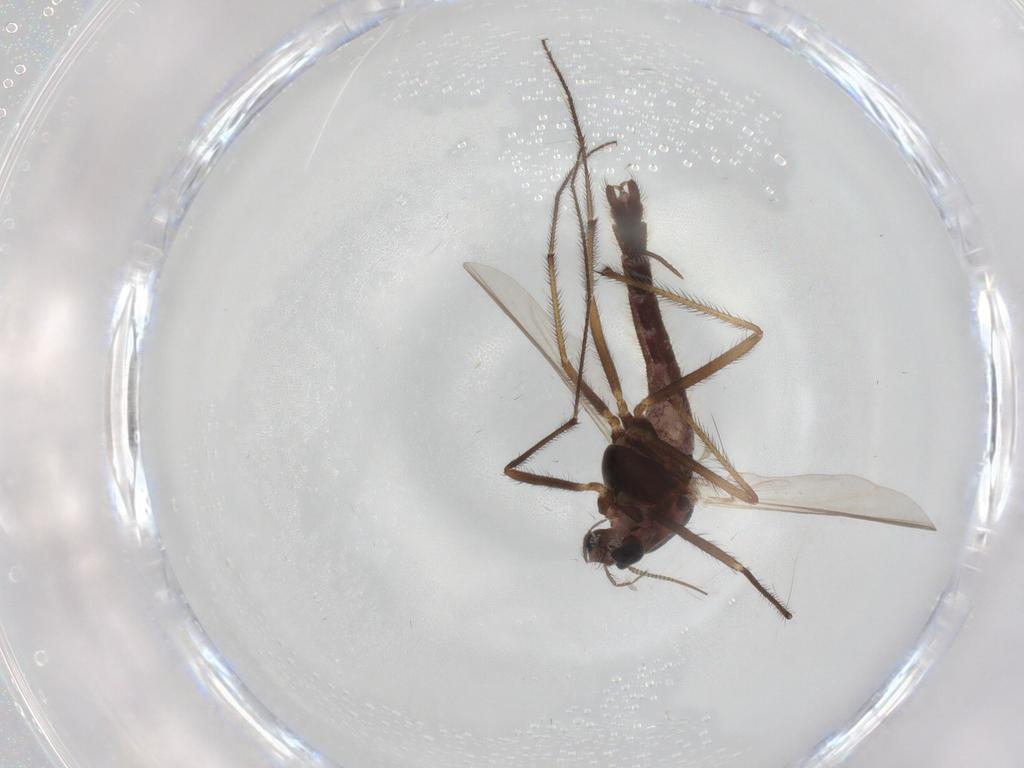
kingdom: Animalia
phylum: Arthropoda
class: Insecta
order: Diptera
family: Chironomidae
